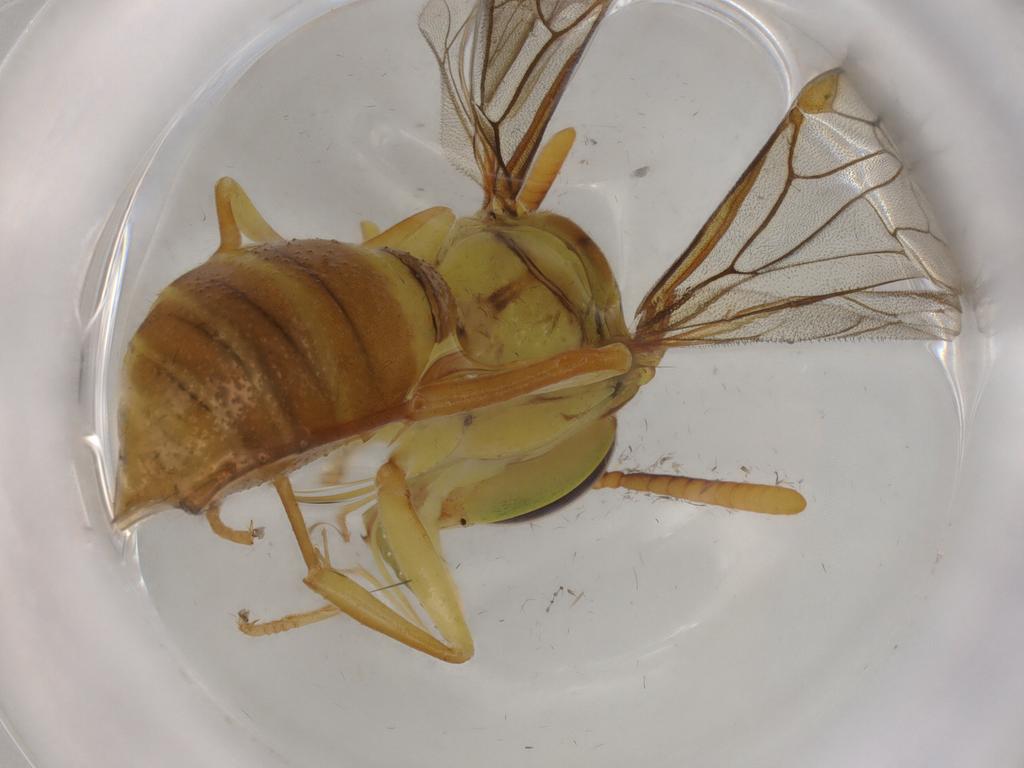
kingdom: Animalia
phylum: Arthropoda
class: Insecta
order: Hymenoptera
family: Vespidae
